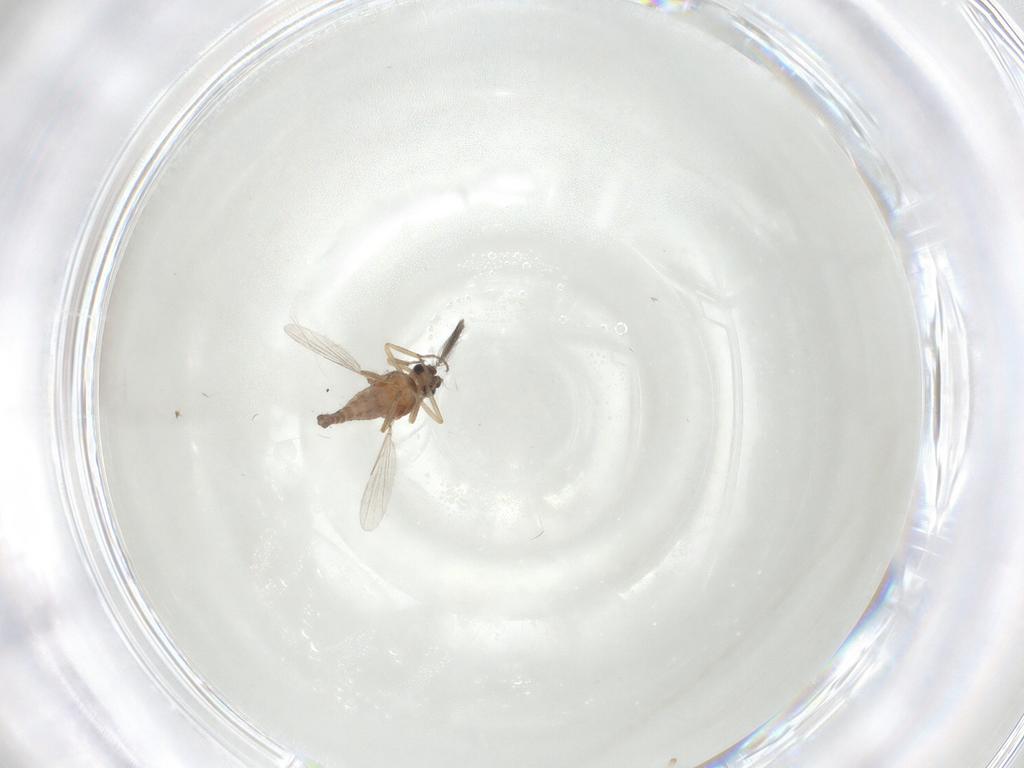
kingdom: Animalia
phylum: Arthropoda
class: Insecta
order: Diptera
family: Ceratopogonidae
